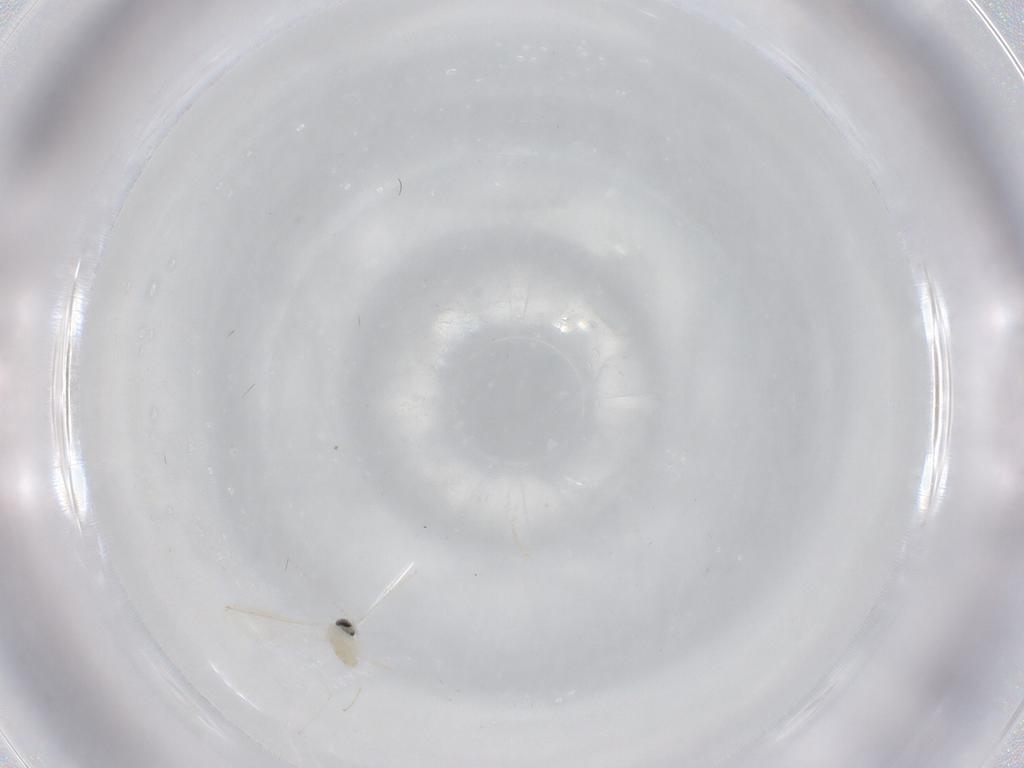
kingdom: Animalia
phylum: Arthropoda
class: Insecta
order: Diptera
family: Cecidomyiidae
